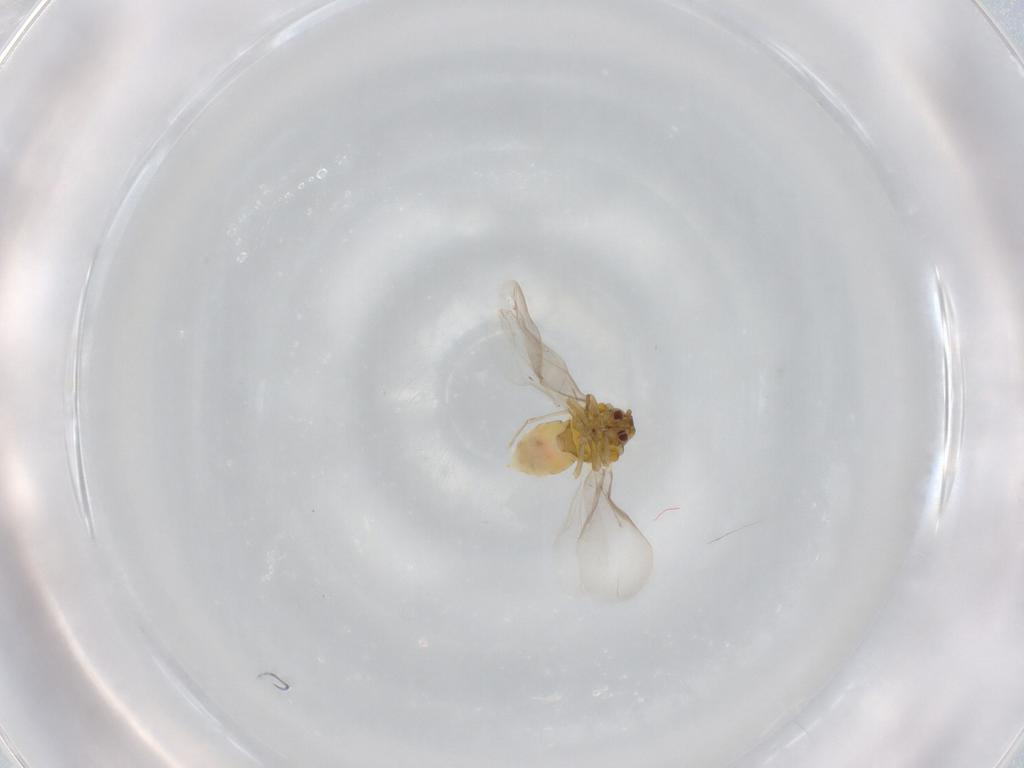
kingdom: Animalia
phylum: Arthropoda
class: Insecta
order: Hemiptera
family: Aleyrodidae
